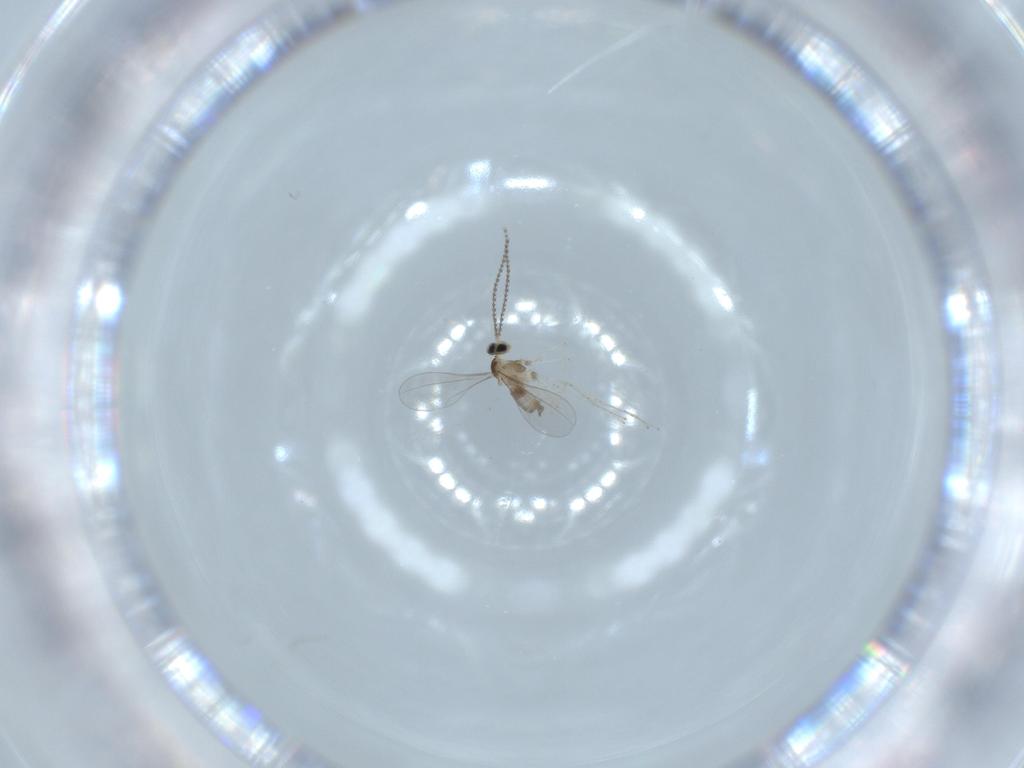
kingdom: Animalia
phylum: Arthropoda
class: Insecta
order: Diptera
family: Cecidomyiidae
